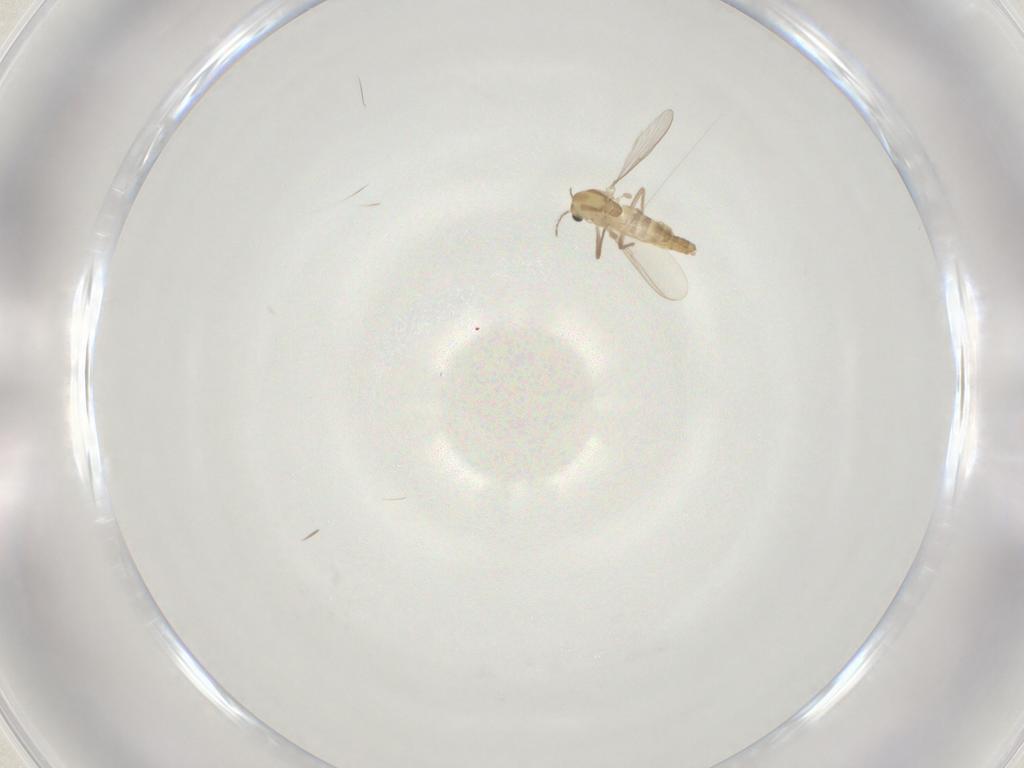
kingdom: Animalia
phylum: Arthropoda
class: Insecta
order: Diptera
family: Chironomidae
